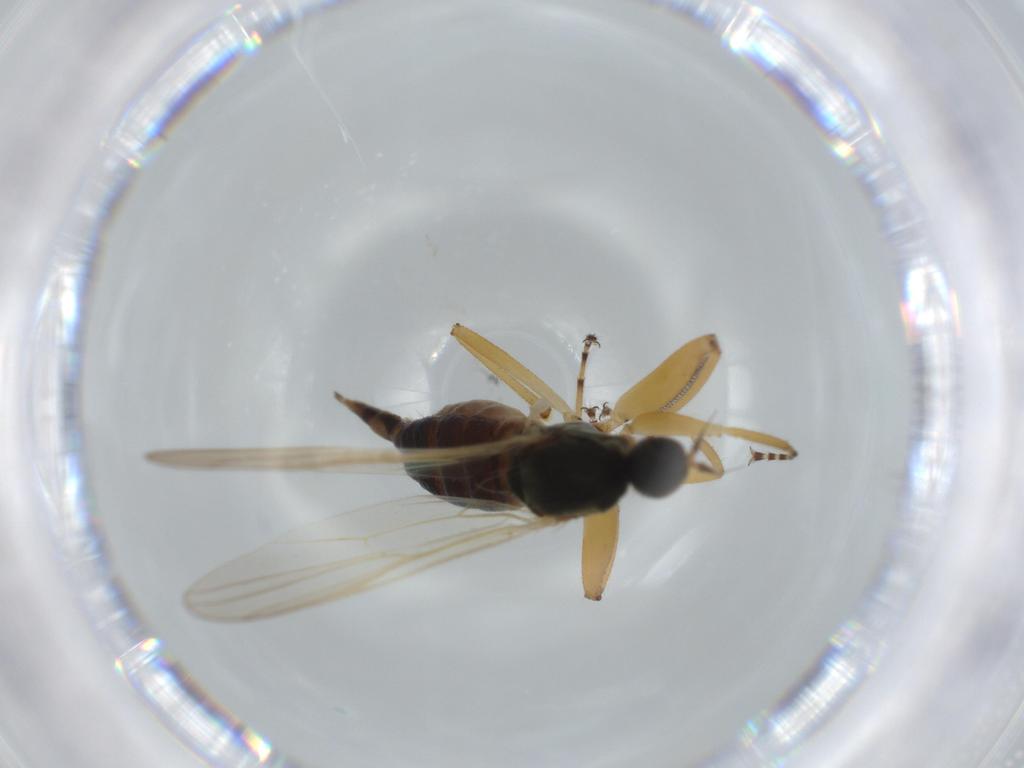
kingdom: Animalia
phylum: Arthropoda
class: Insecta
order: Diptera
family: Hybotidae
